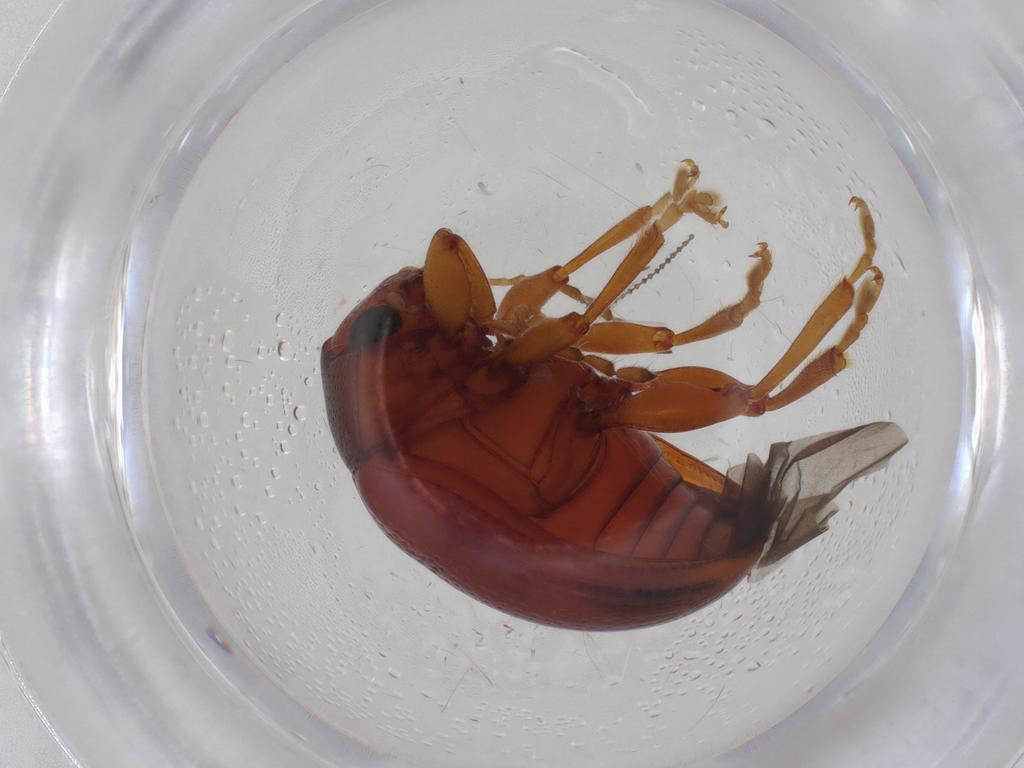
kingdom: Animalia
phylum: Arthropoda
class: Insecta
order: Coleoptera
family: Chrysomelidae
